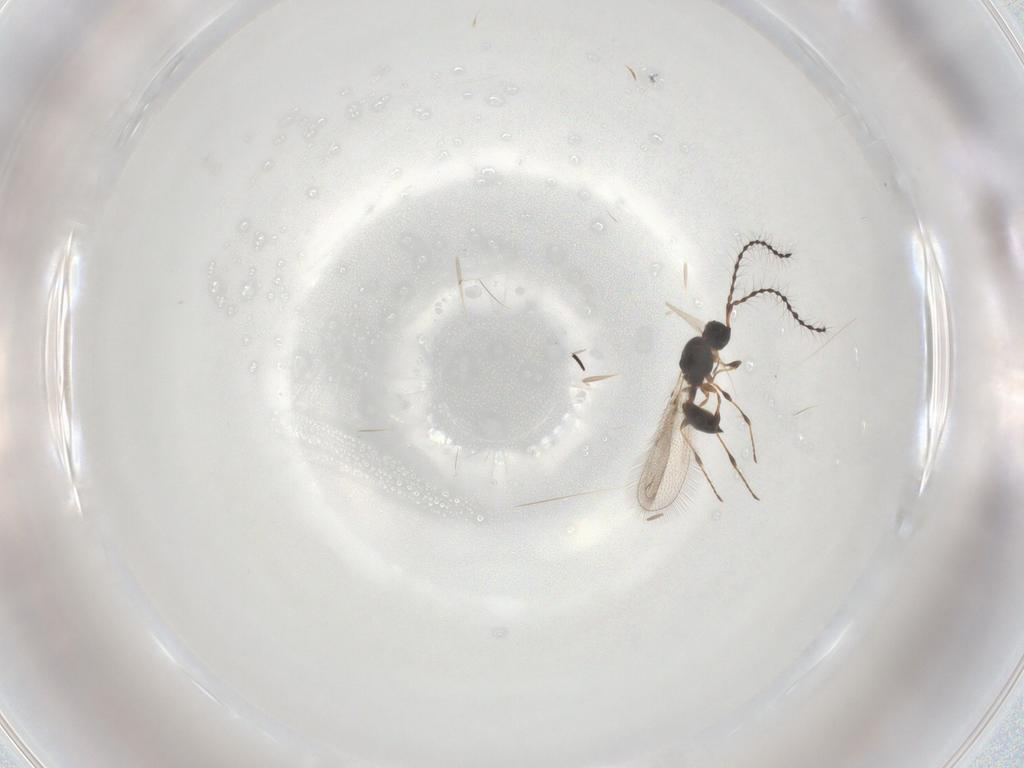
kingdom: Animalia
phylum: Arthropoda
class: Insecta
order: Hymenoptera
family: Diapriidae
